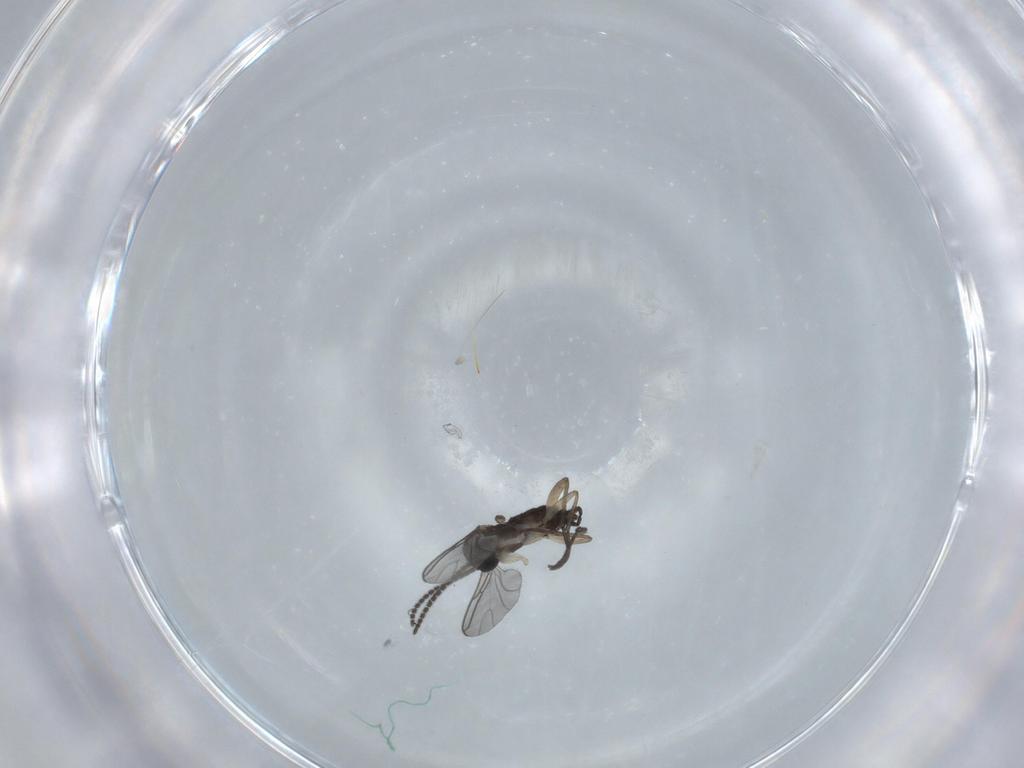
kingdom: Animalia
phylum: Arthropoda
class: Insecta
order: Diptera
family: Sciaridae
